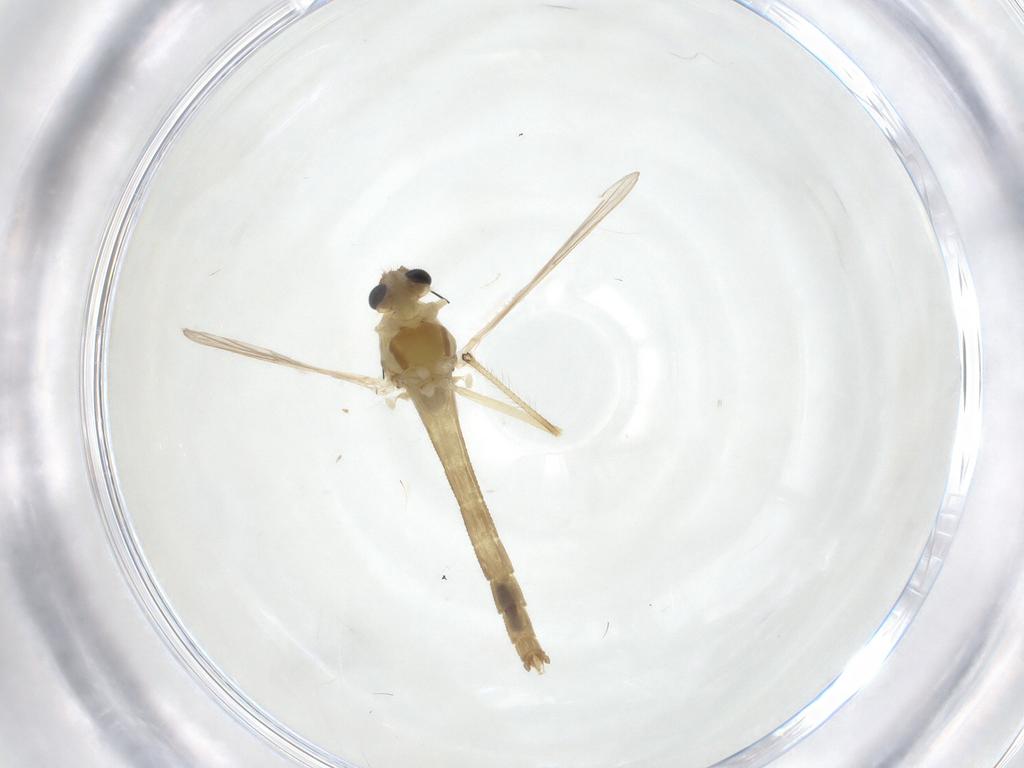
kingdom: Animalia
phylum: Arthropoda
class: Insecta
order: Diptera
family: Chironomidae
